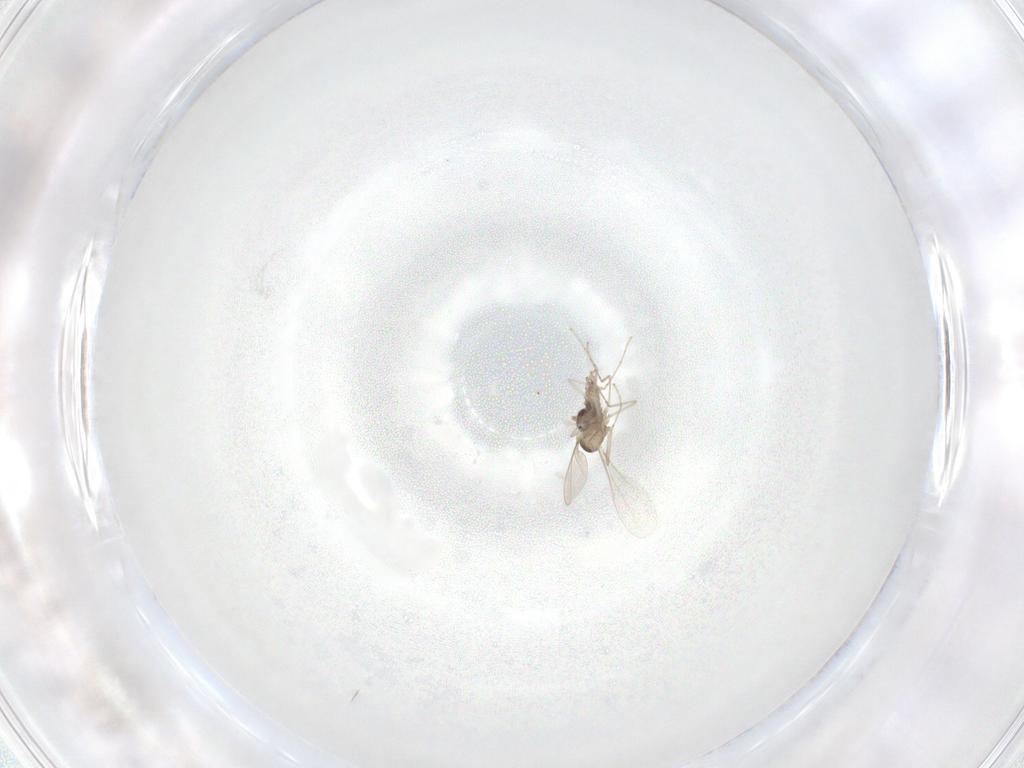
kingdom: Animalia
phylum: Arthropoda
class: Insecta
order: Diptera
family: Cecidomyiidae
